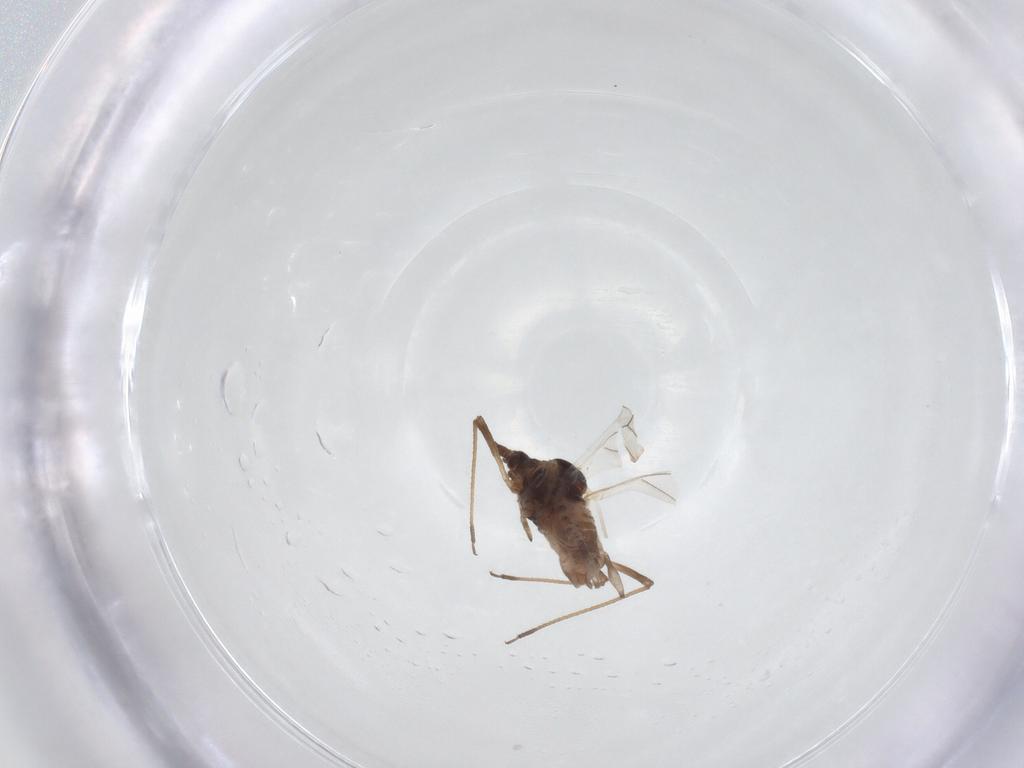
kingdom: Animalia
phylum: Arthropoda
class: Insecta
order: Hemiptera
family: Aphididae
